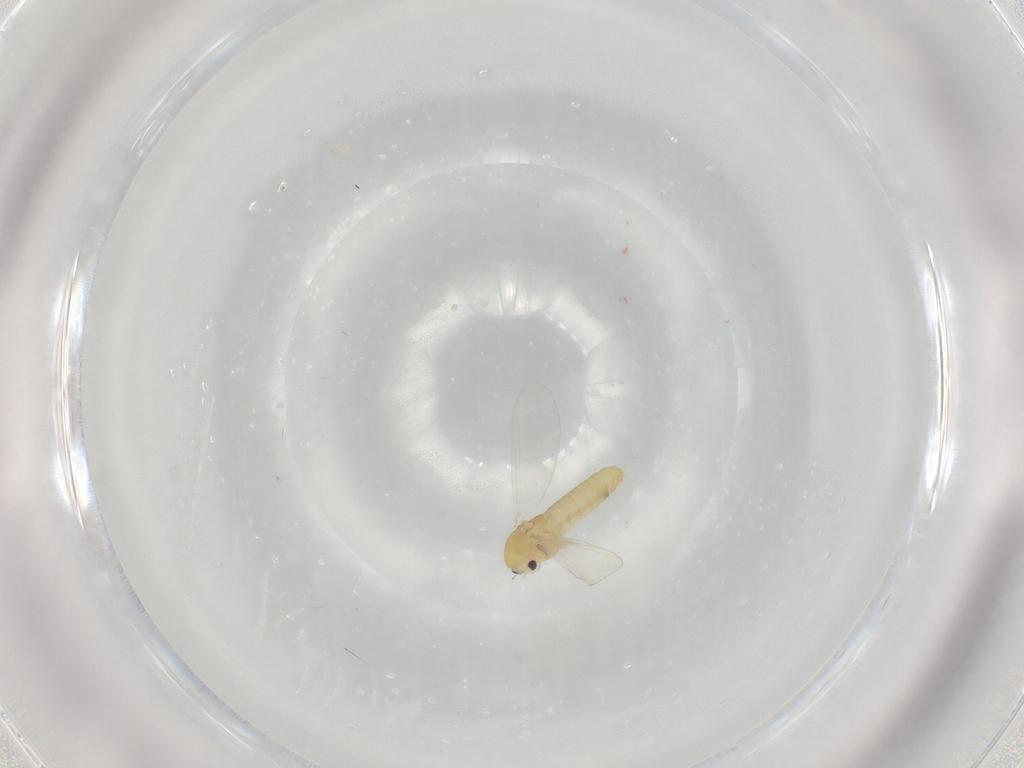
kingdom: Animalia
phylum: Arthropoda
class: Insecta
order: Diptera
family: Chironomidae
